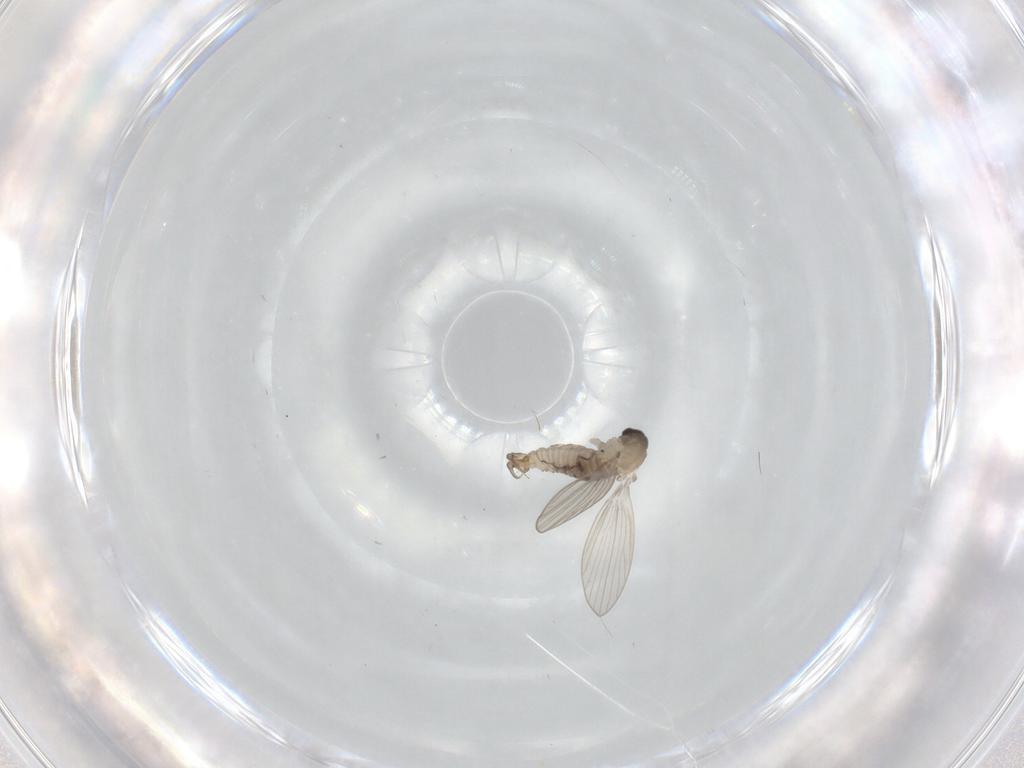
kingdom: Animalia
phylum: Arthropoda
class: Insecta
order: Diptera
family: Psychodidae
